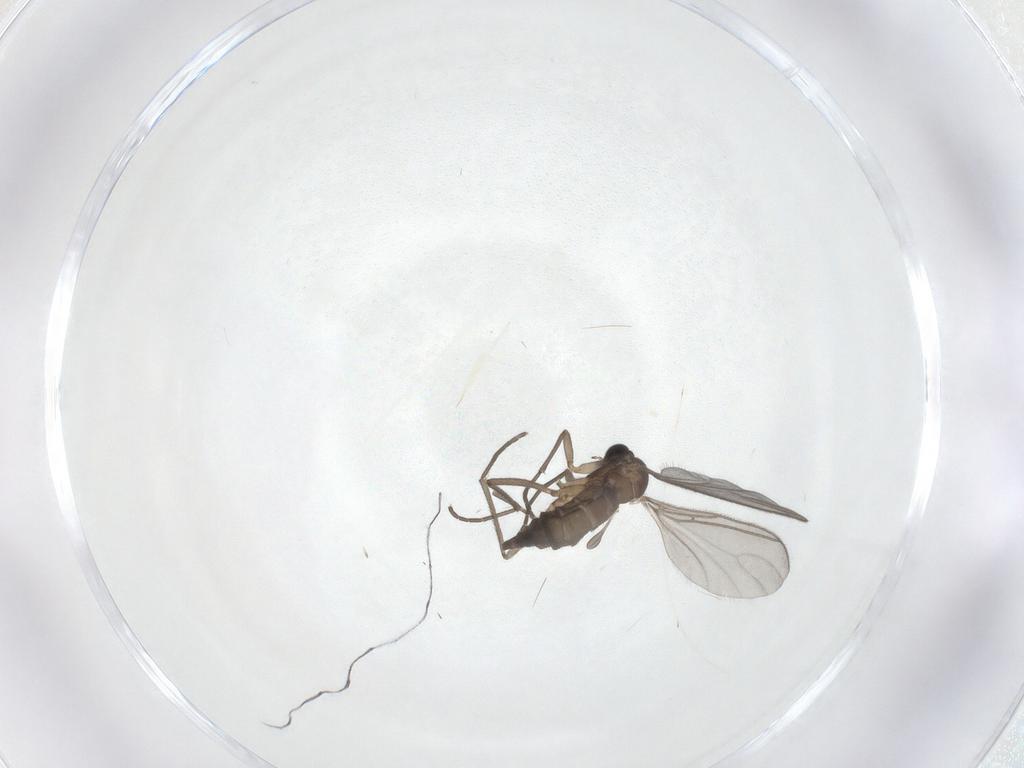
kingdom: Animalia
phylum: Arthropoda
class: Insecta
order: Diptera
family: Sciaridae
